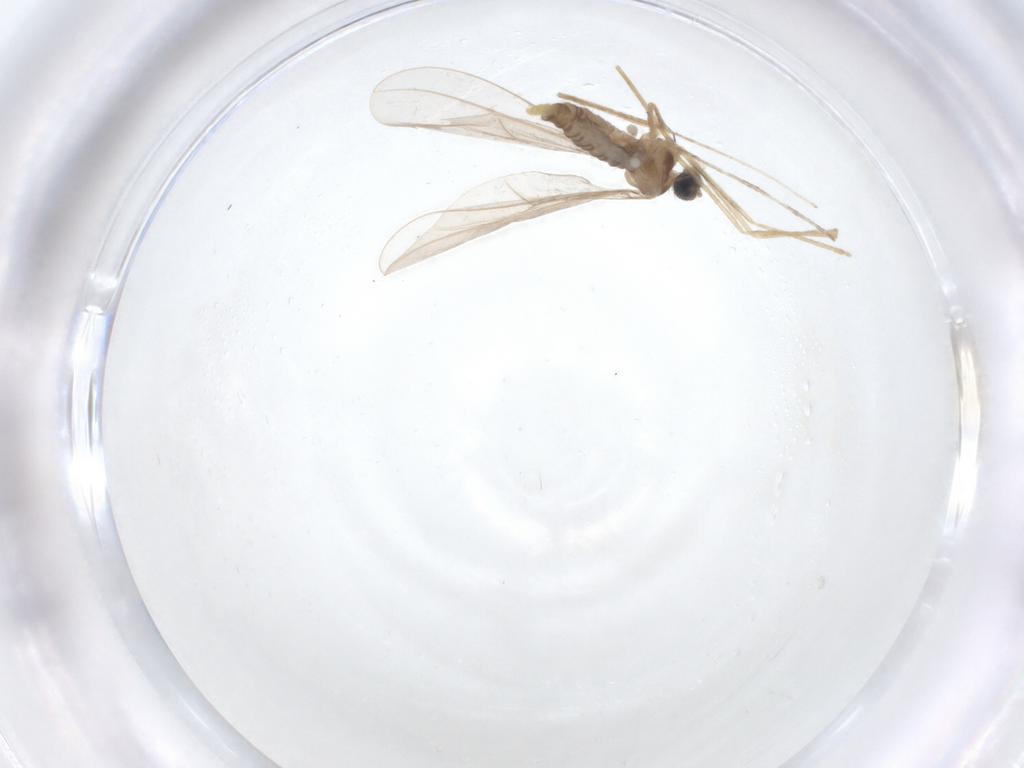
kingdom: Animalia
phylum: Arthropoda
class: Insecta
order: Diptera
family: Cecidomyiidae
